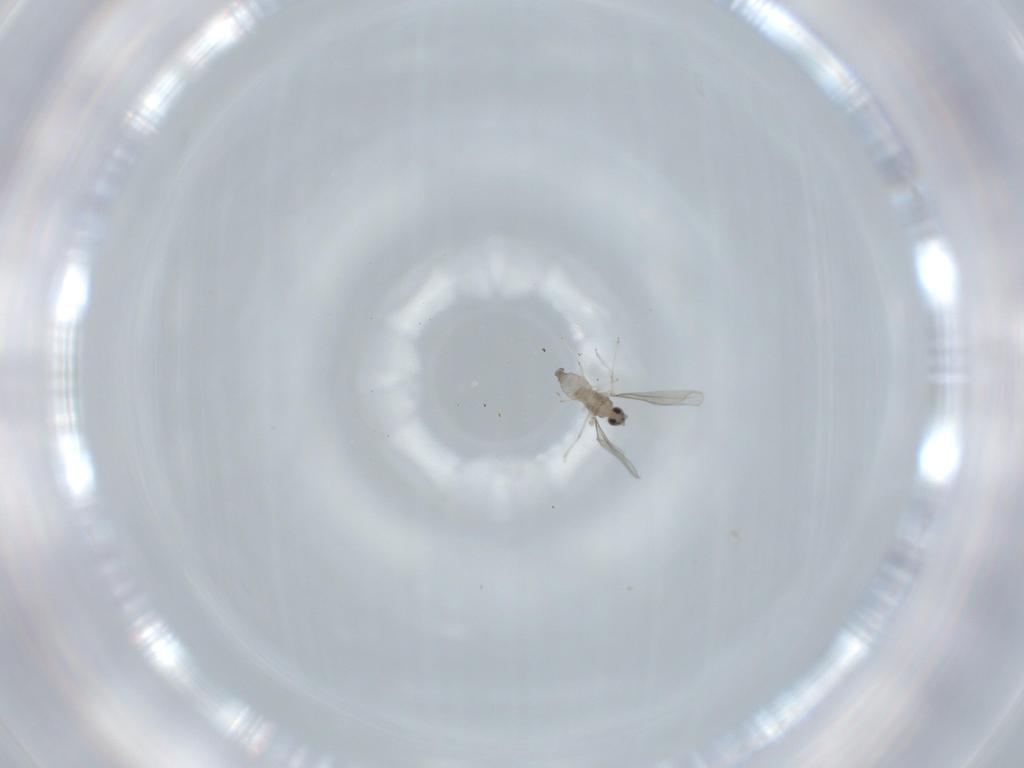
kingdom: Animalia
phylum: Arthropoda
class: Insecta
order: Diptera
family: Cecidomyiidae
